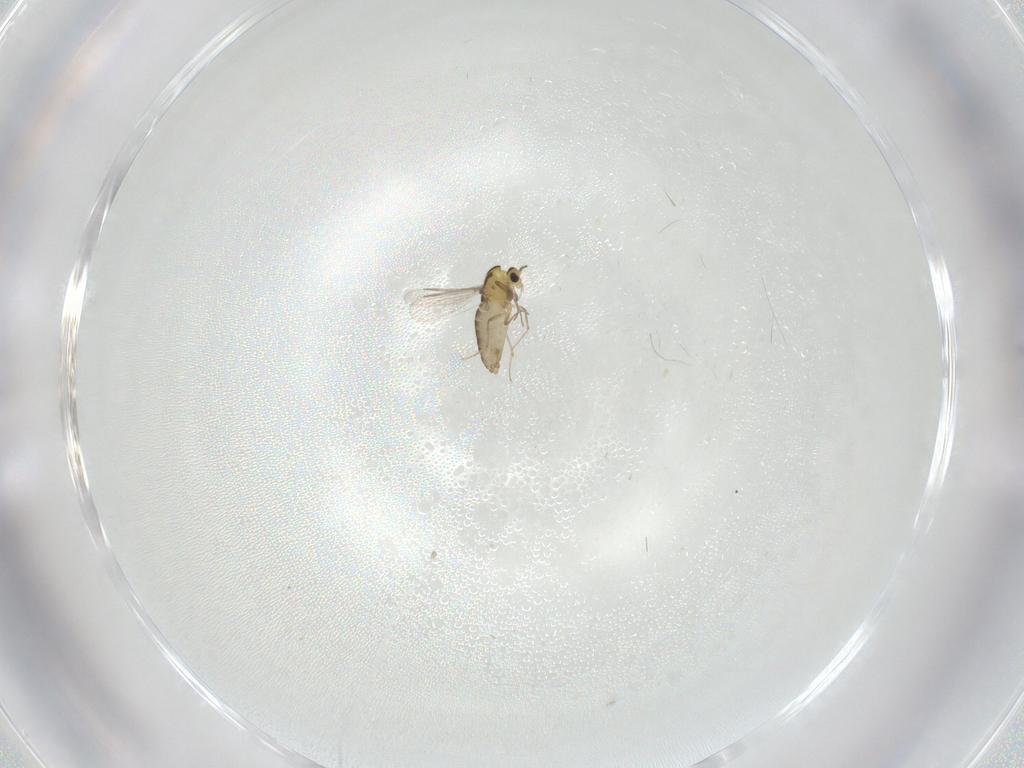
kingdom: Animalia
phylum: Arthropoda
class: Insecta
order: Diptera
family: Chironomidae
